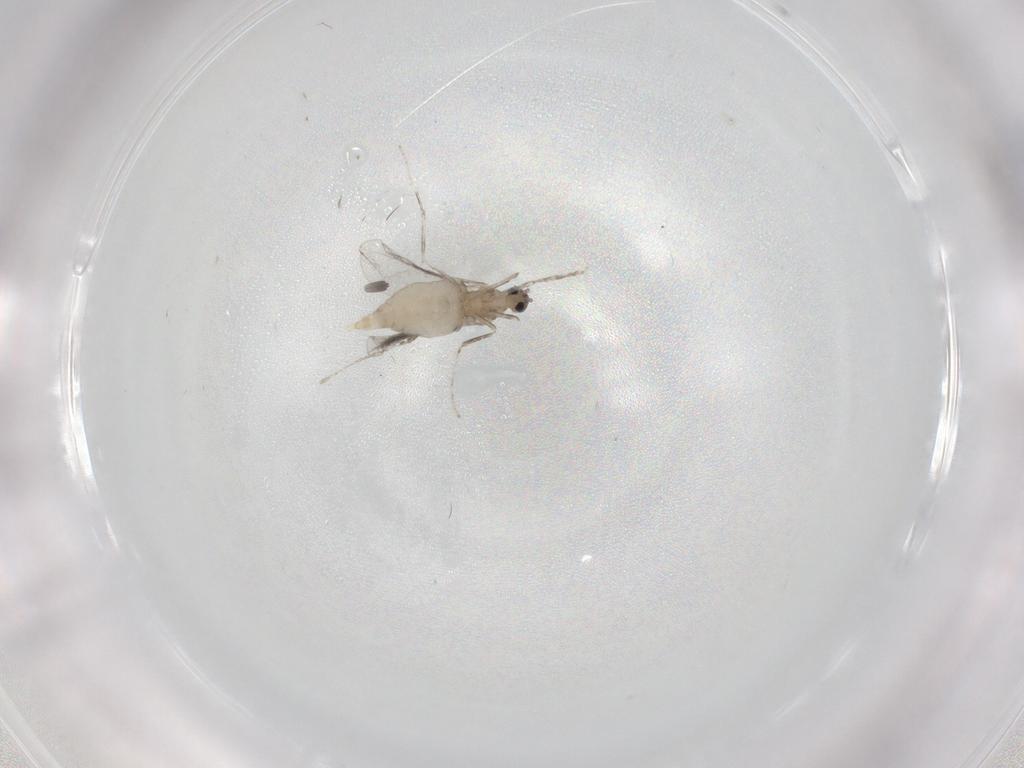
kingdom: Animalia
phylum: Arthropoda
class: Insecta
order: Diptera
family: Cecidomyiidae
